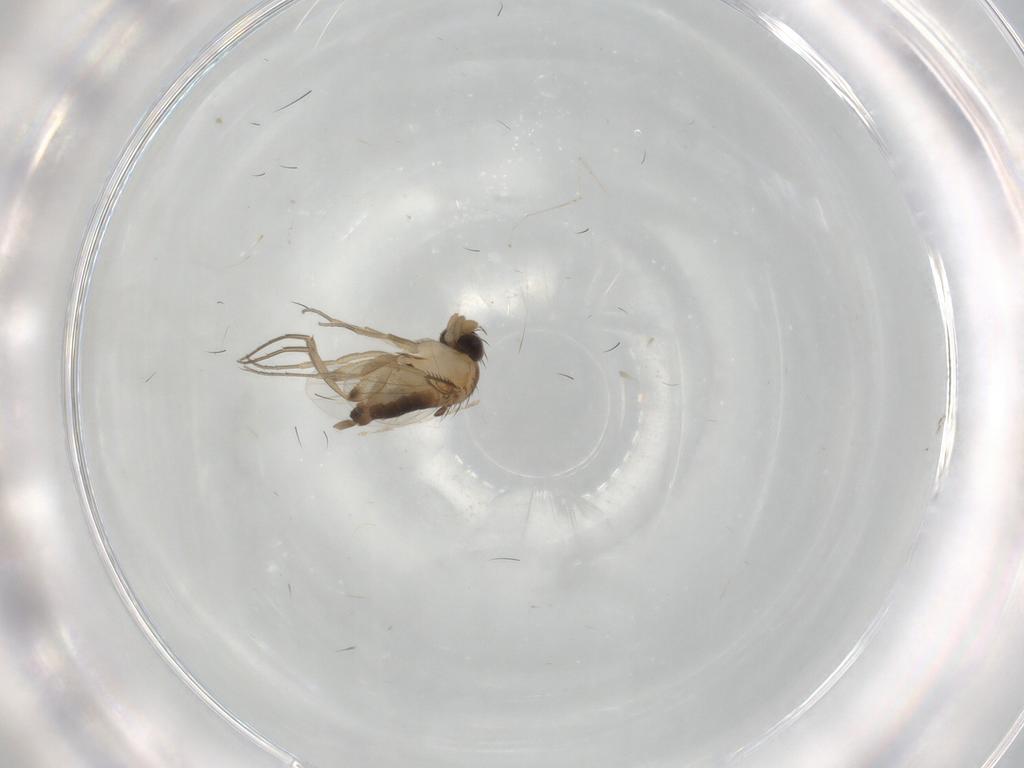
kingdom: Animalia
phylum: Arthropoda
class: Insecta
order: Diptera
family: Phoridae
